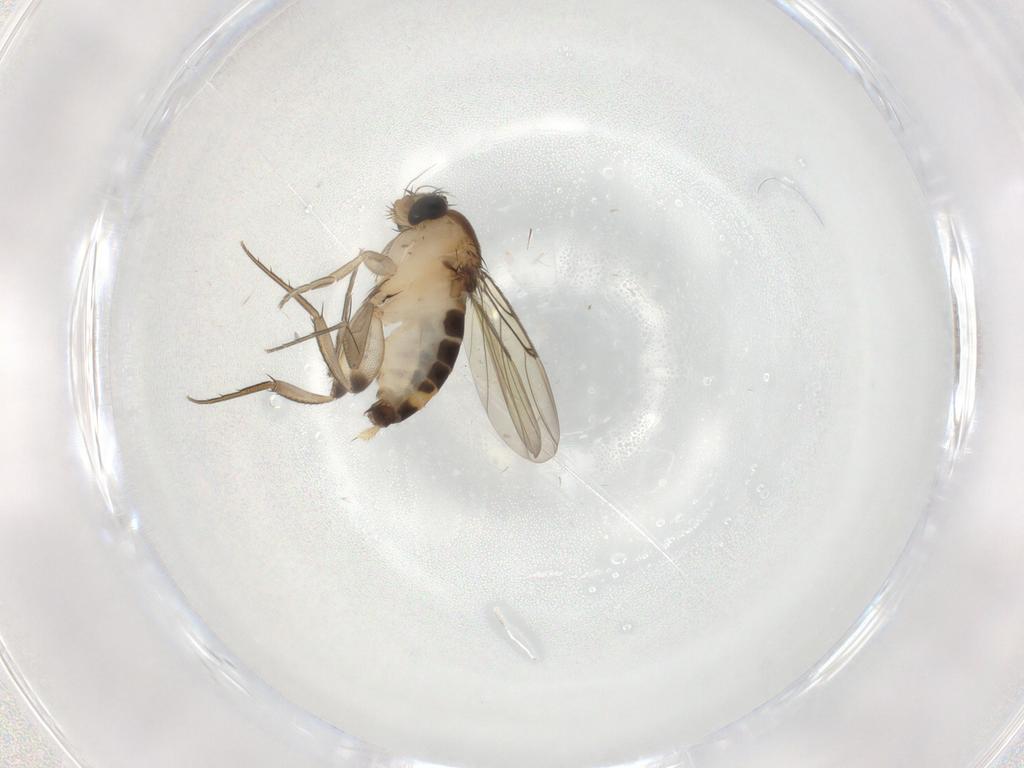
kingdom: Animalia
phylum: Arthropoda
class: Insecta
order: Diptera
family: Phoridae
